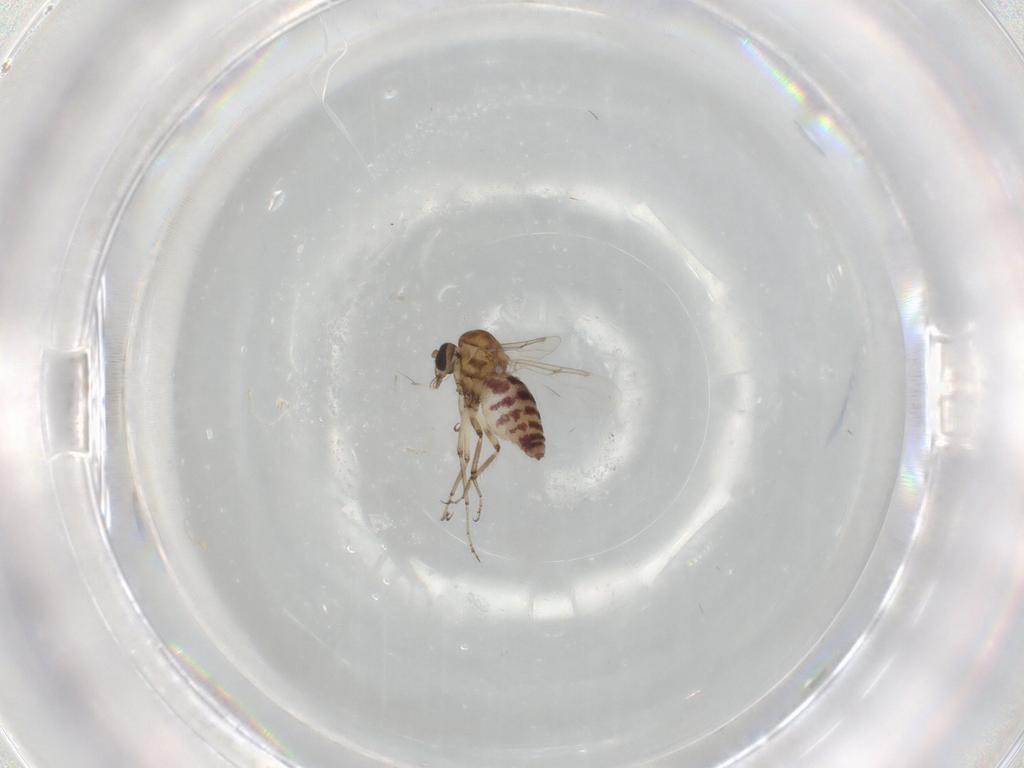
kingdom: Animalia
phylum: Arthropoda
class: Insecta
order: Diptera
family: Ceratopogonidae
